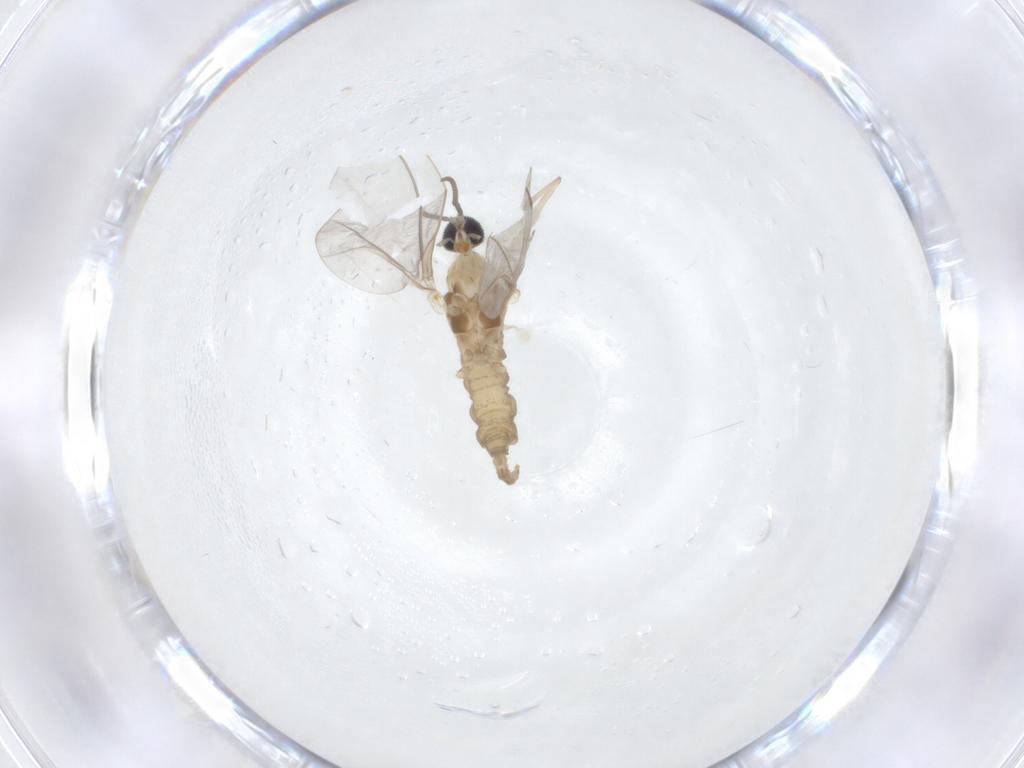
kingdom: Animalia
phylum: Arthropoda
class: Insecta
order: Diptera
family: Cecidomyiidae
